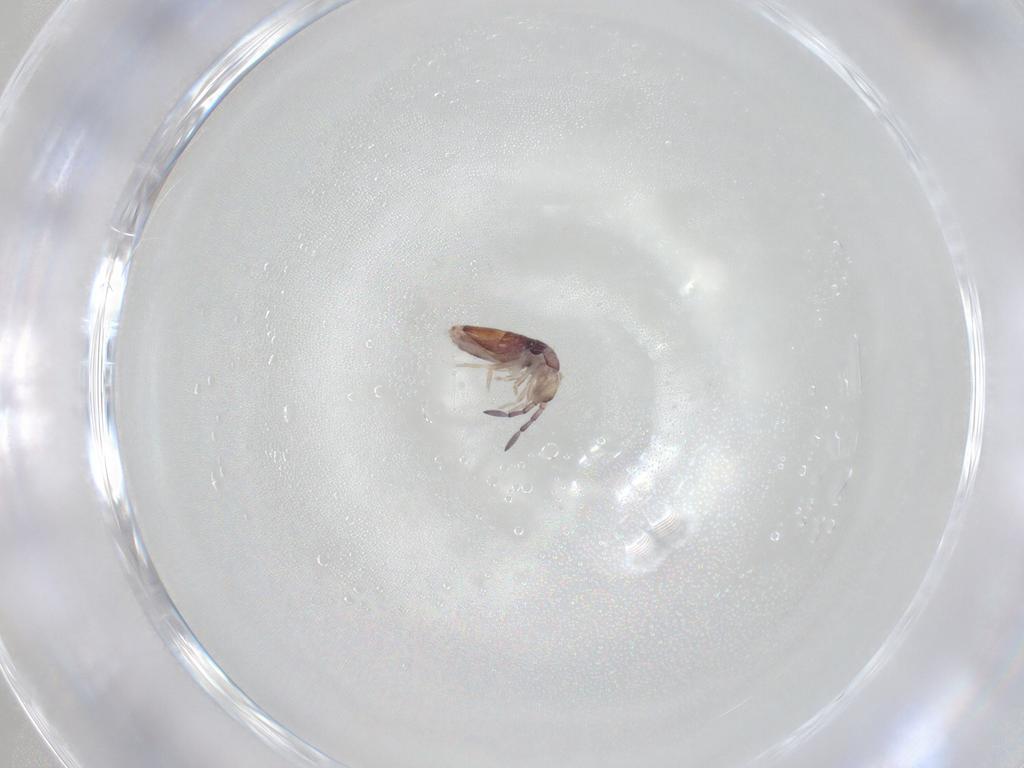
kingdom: Animalia
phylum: Arthropoda
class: Collembola
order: Entomobryomorpha
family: Entomobryidae
